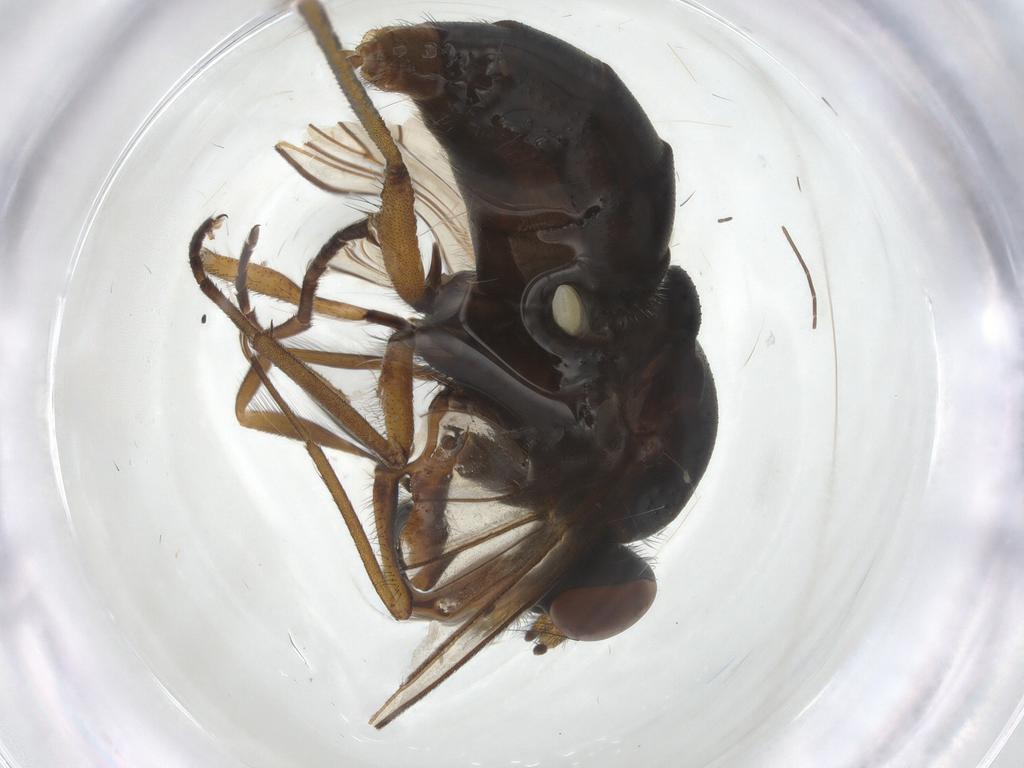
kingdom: Animalia
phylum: Arthropoda
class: Insecta
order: Diptera
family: Rhagionidae
